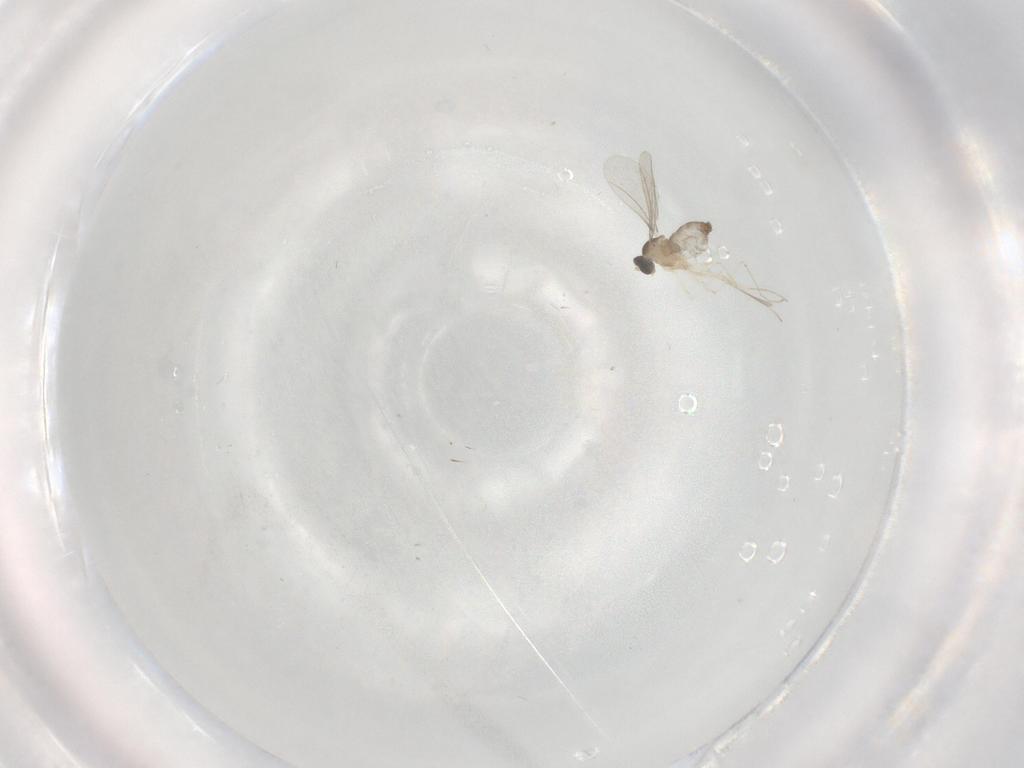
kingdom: Animalia
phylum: Arthropoda
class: Insecta
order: Diptera
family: Cecidomyiidae
